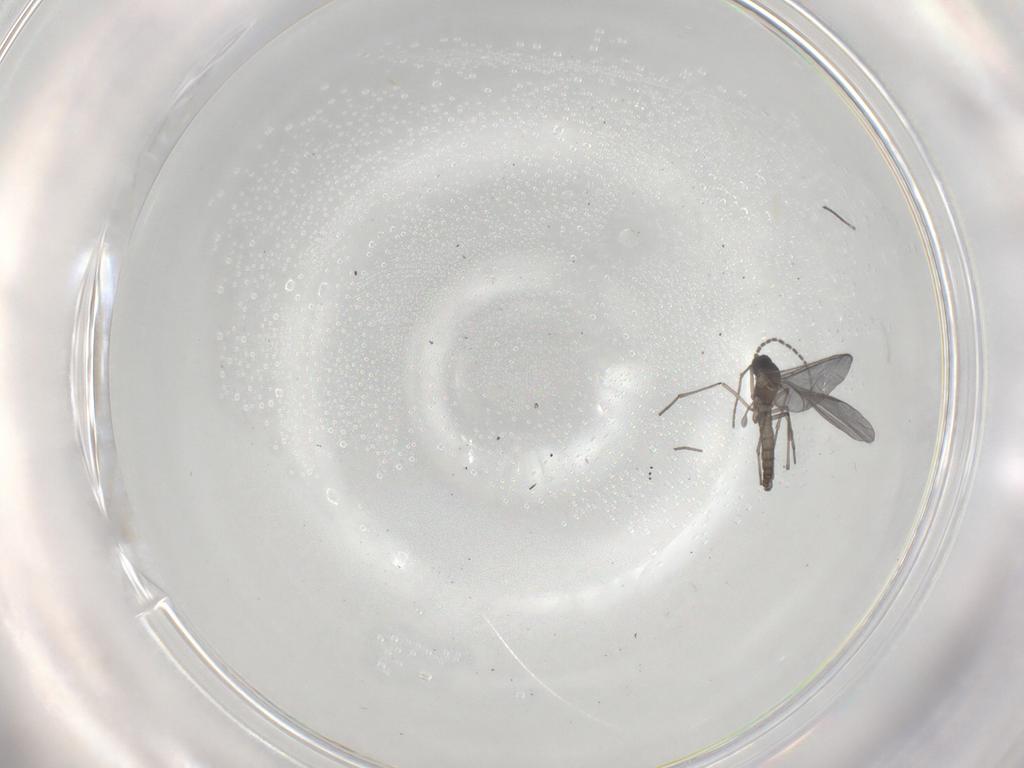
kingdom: Animalia
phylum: Arthropoda
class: Insecta
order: Diptera
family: Sciaridae
